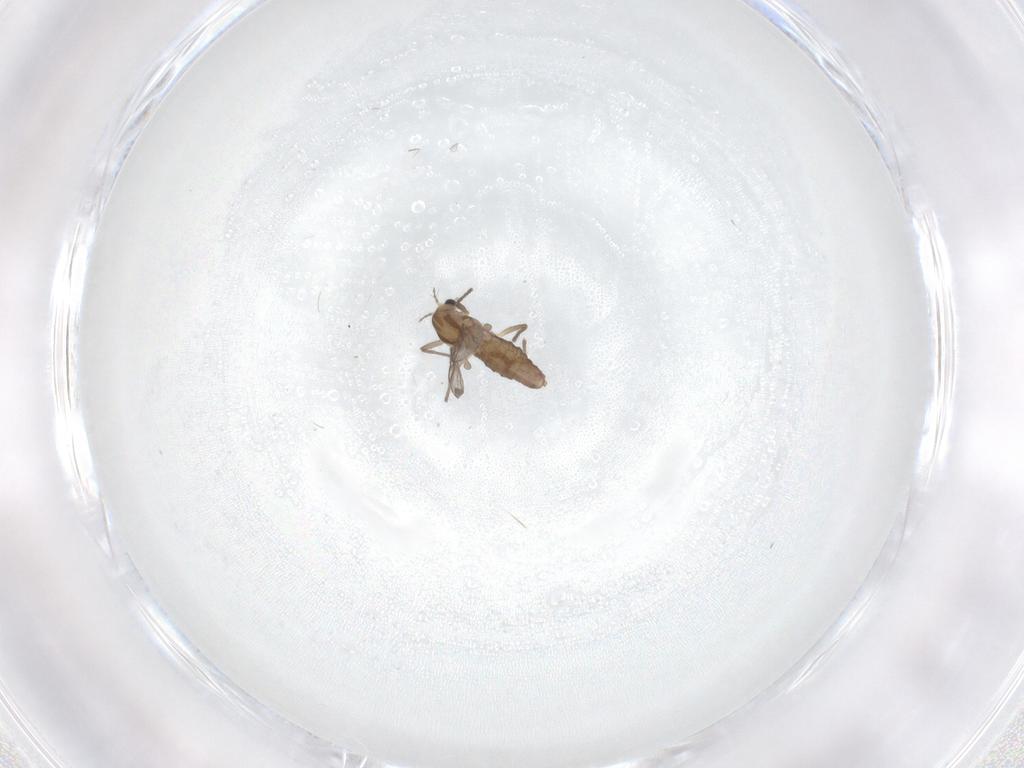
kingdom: Animalia
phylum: Arthropoda
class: Insecta
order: Diptera
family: Chironomidae
